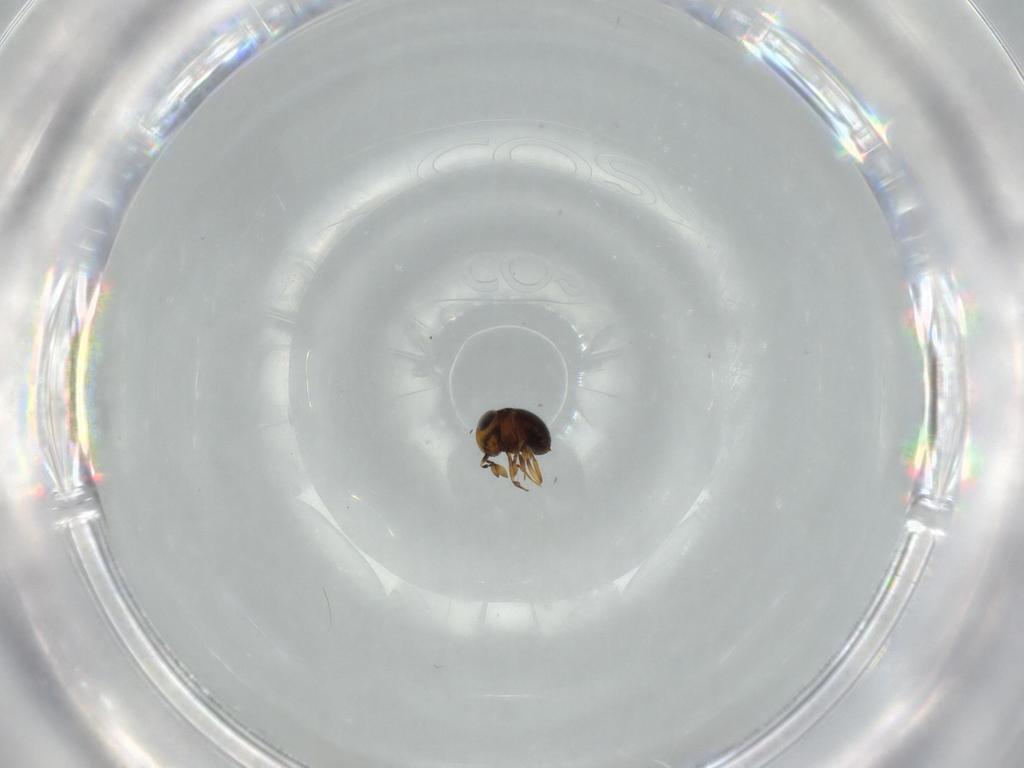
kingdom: Animalia
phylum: Arthropoda
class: Insecta
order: Hymenoptera
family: Scelionidae
